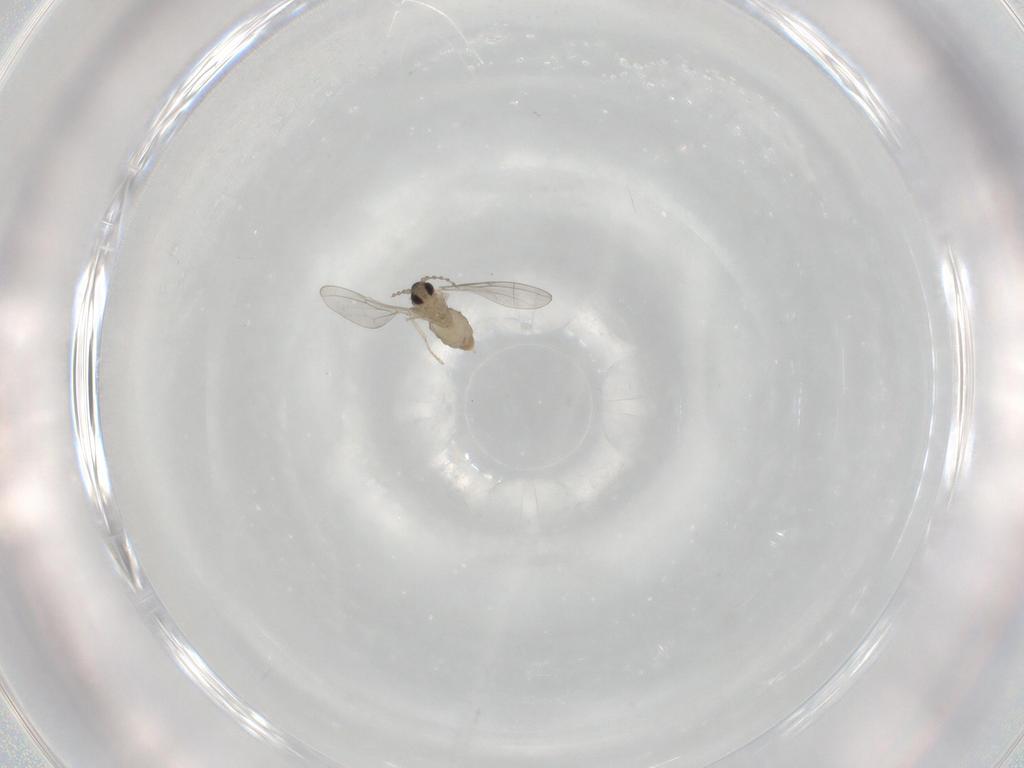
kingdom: Animalia
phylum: Arthropoda
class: Insecta
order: Diptera
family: Cecidomyiidae
